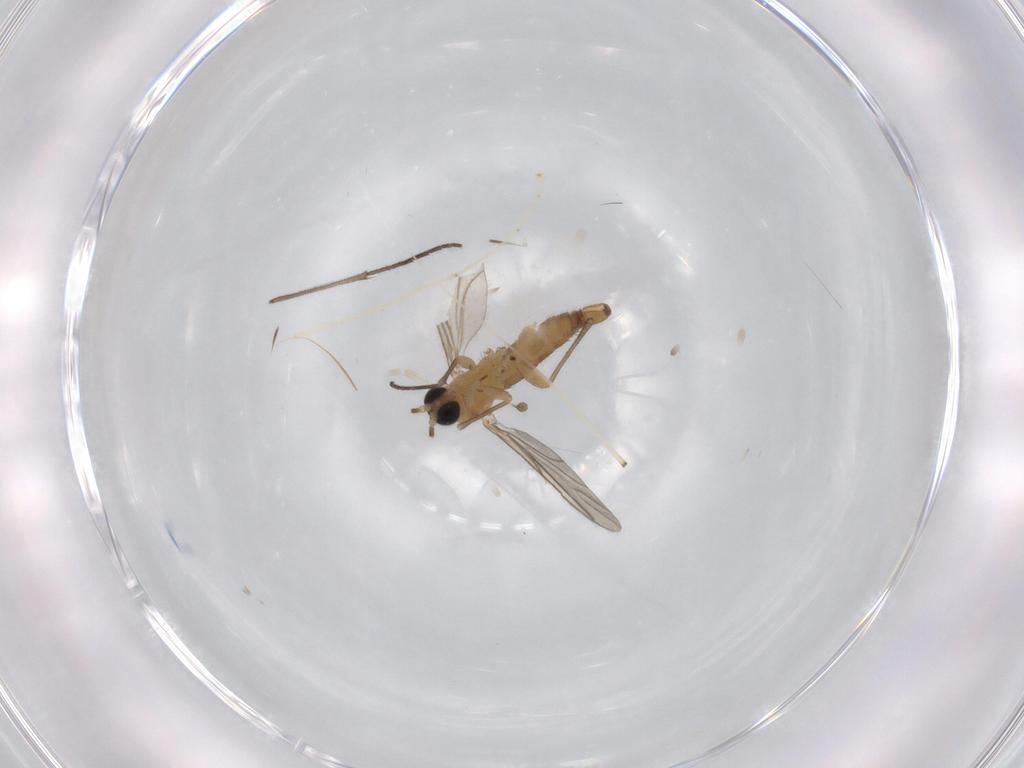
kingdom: Animalia
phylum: Arthropoda
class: Insecta
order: Diptera
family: Sciaridae
